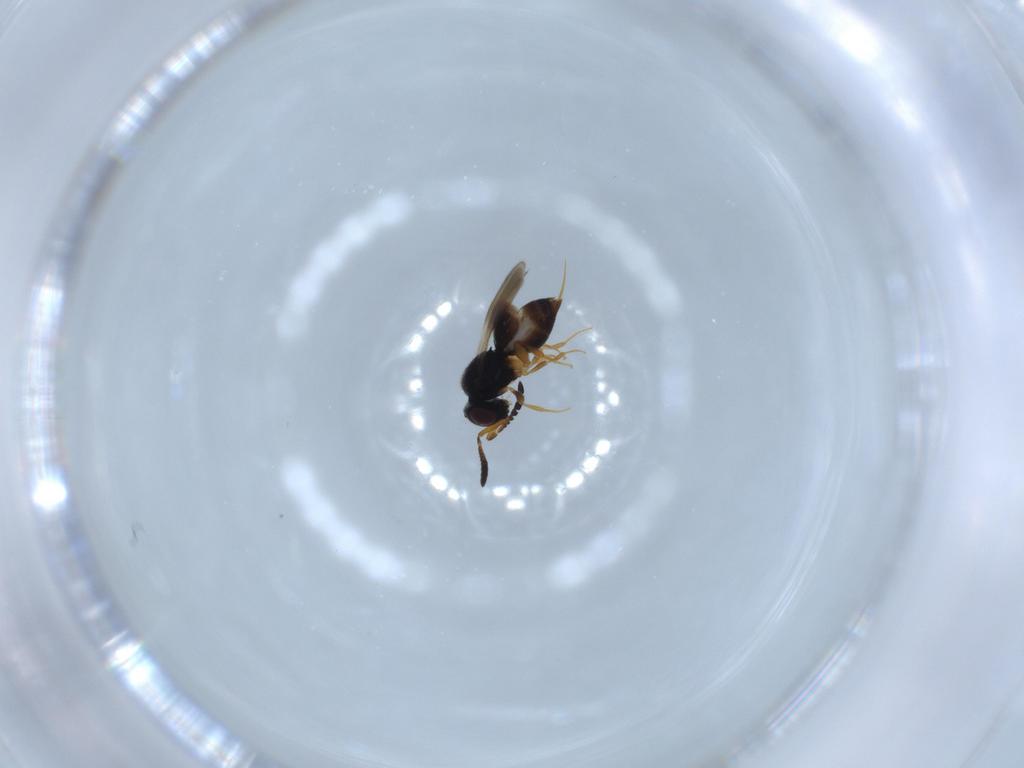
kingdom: Animalia
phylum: Arthropoda
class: Insecta
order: Hymenoptera
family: Ceraphronidae
